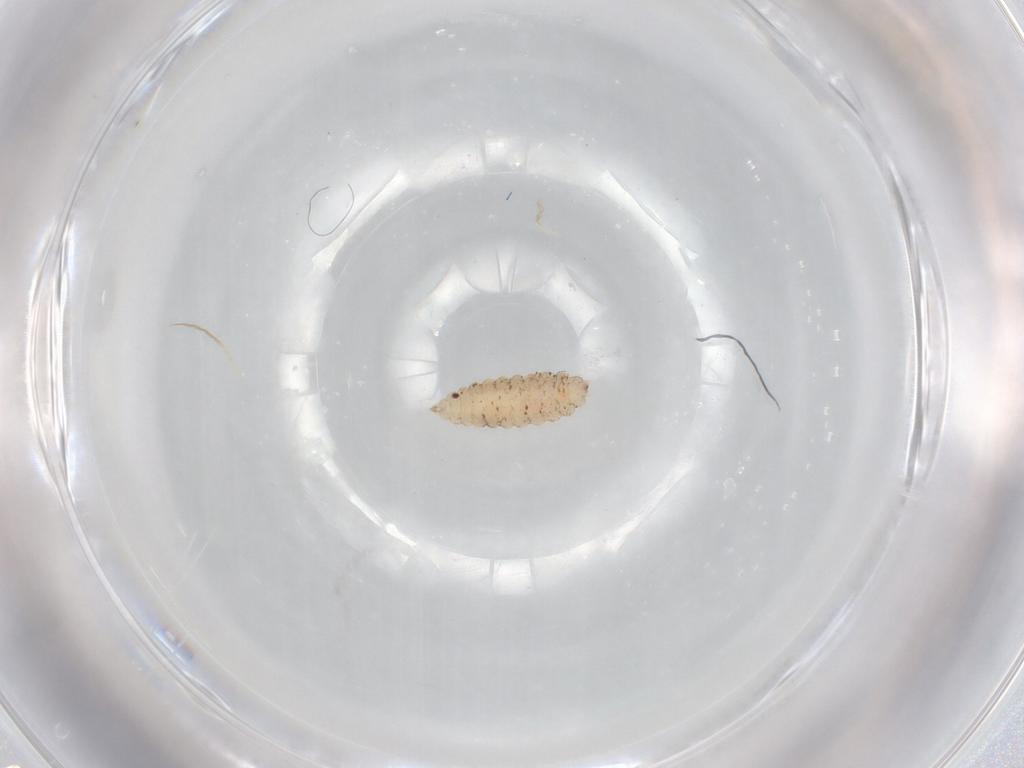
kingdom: Animalia
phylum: Arthropoda
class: Insecta
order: Diptera
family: Cecidomyiidae
